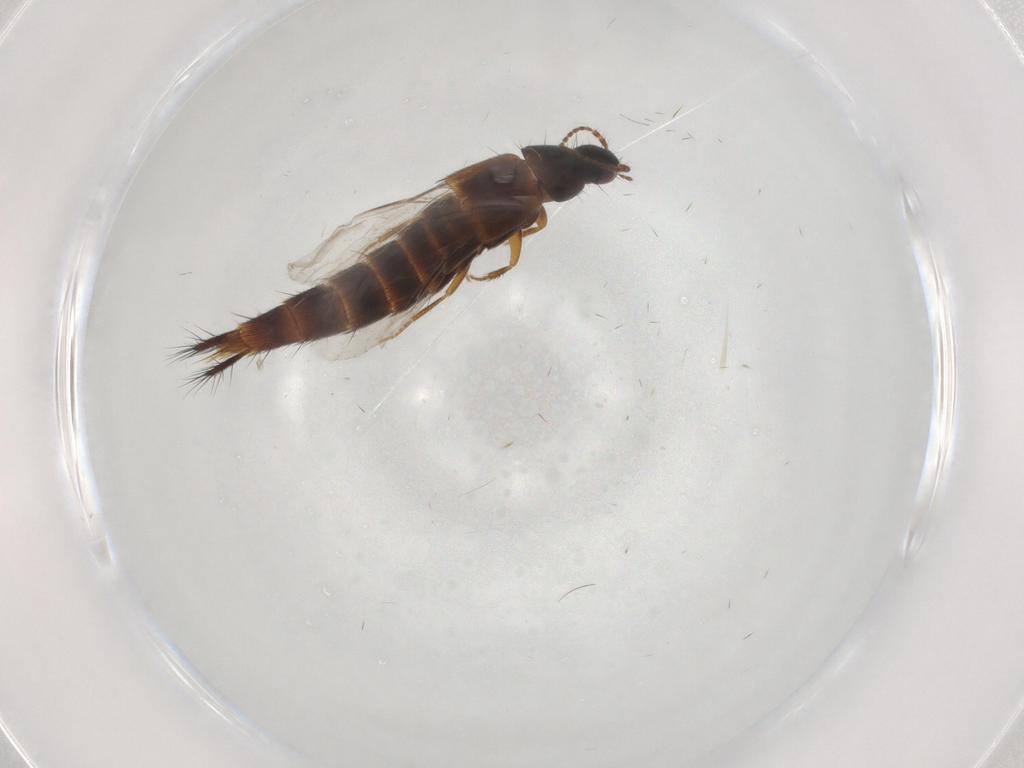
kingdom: Animalia
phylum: Arthropoda
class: Insecta
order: Coleoptera
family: Staphylinidae
